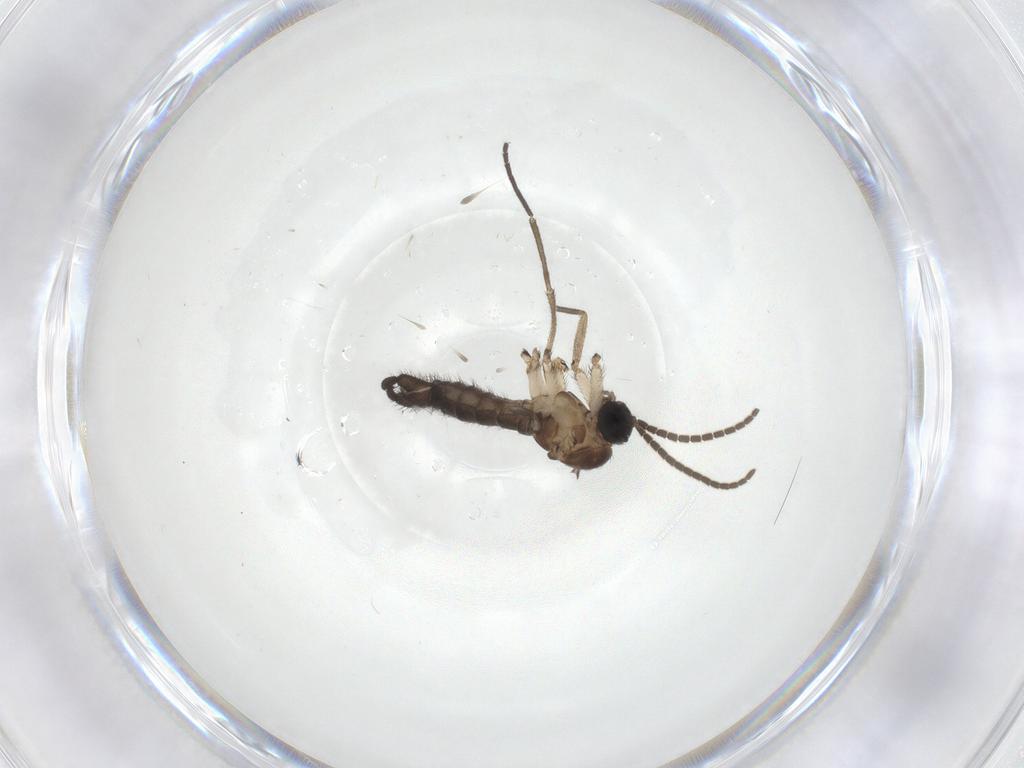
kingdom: Animalia
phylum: Arthropoda
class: Insecta
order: Diptera
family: Sciaridae
